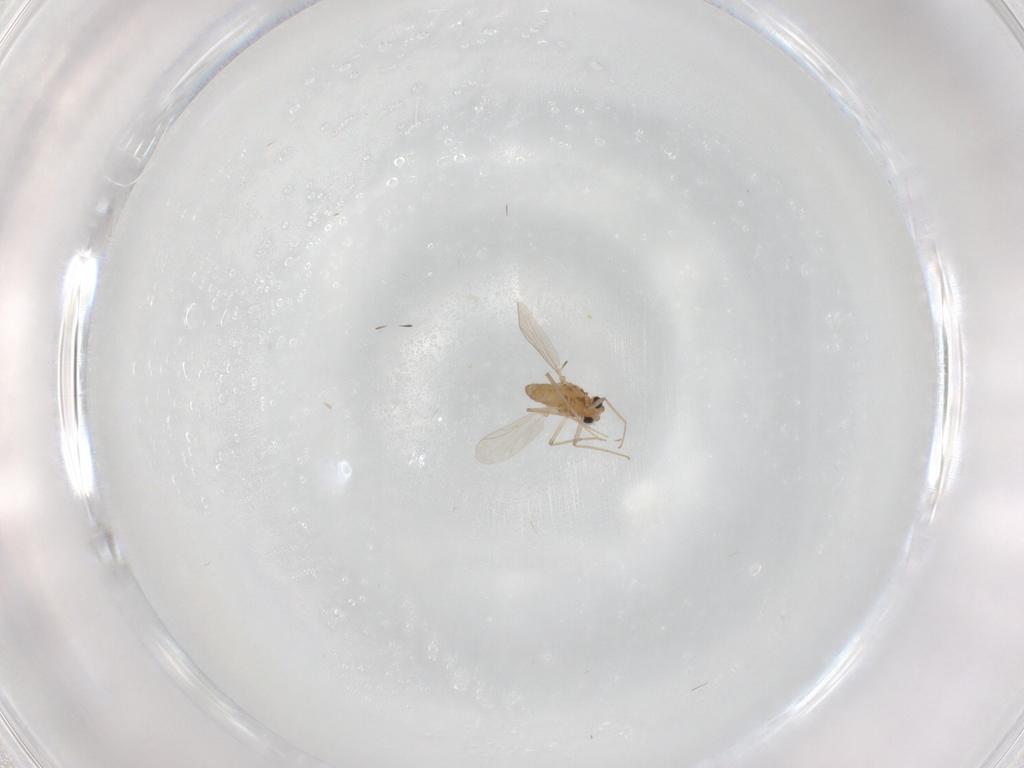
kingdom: Animalia
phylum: Arthropoda
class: Insecta
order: Diptera
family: Chironomidae
